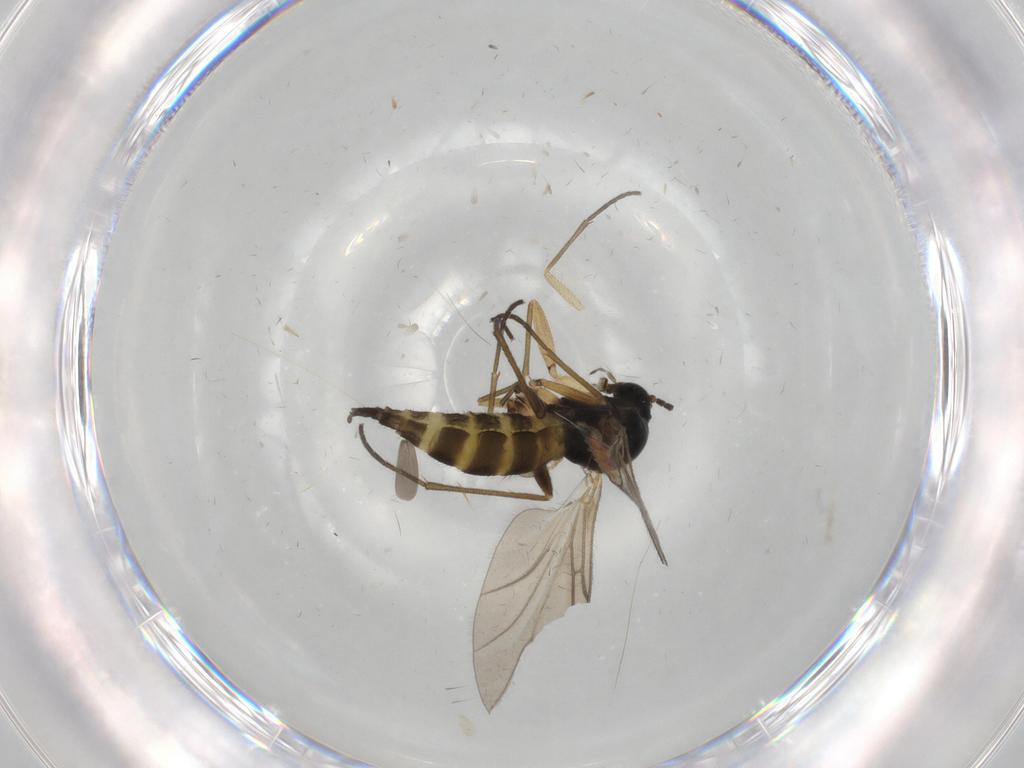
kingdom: Animalia
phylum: Arthropoda
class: Insecta
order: Diptera
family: Sciaridae
